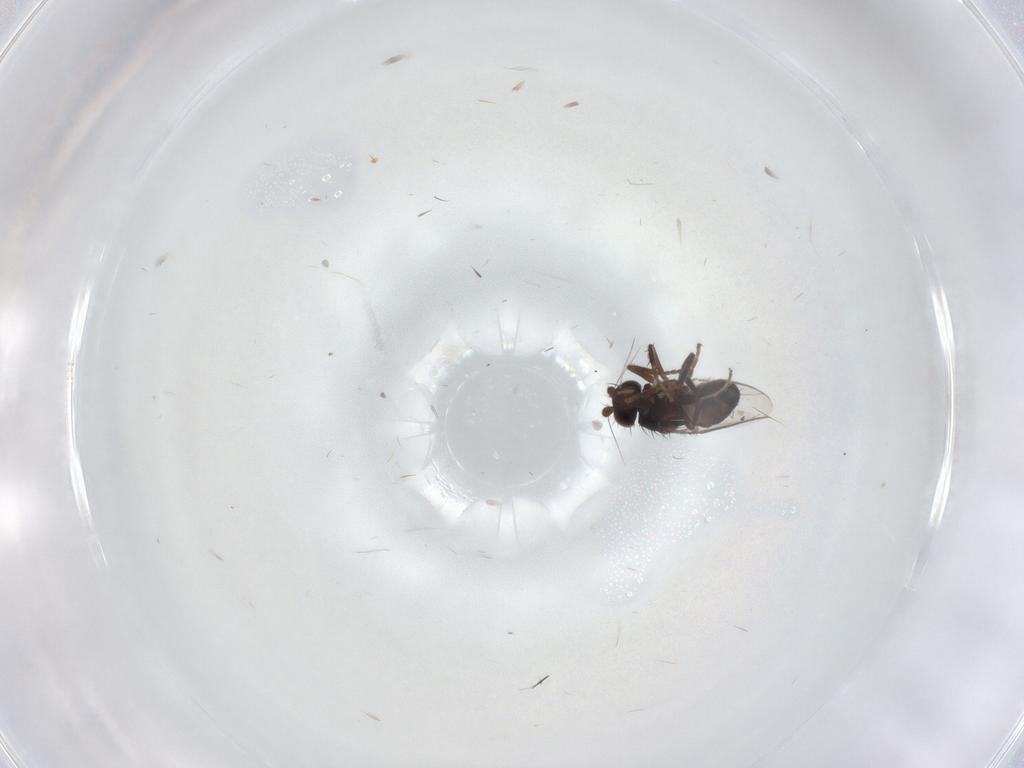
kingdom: Animalia
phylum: Arthropoda
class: Insecta
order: Diptera
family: Sphaeroceridae
